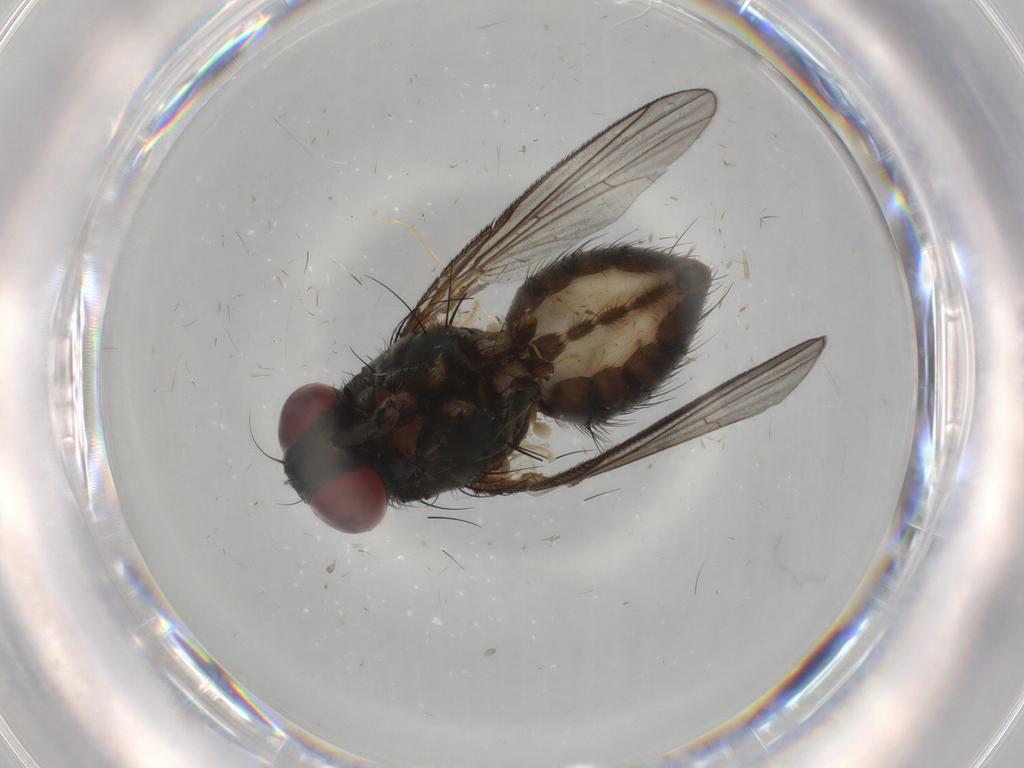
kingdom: Animalia
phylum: Arthropoda
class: Insecta
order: Diptera
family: Muscidae
